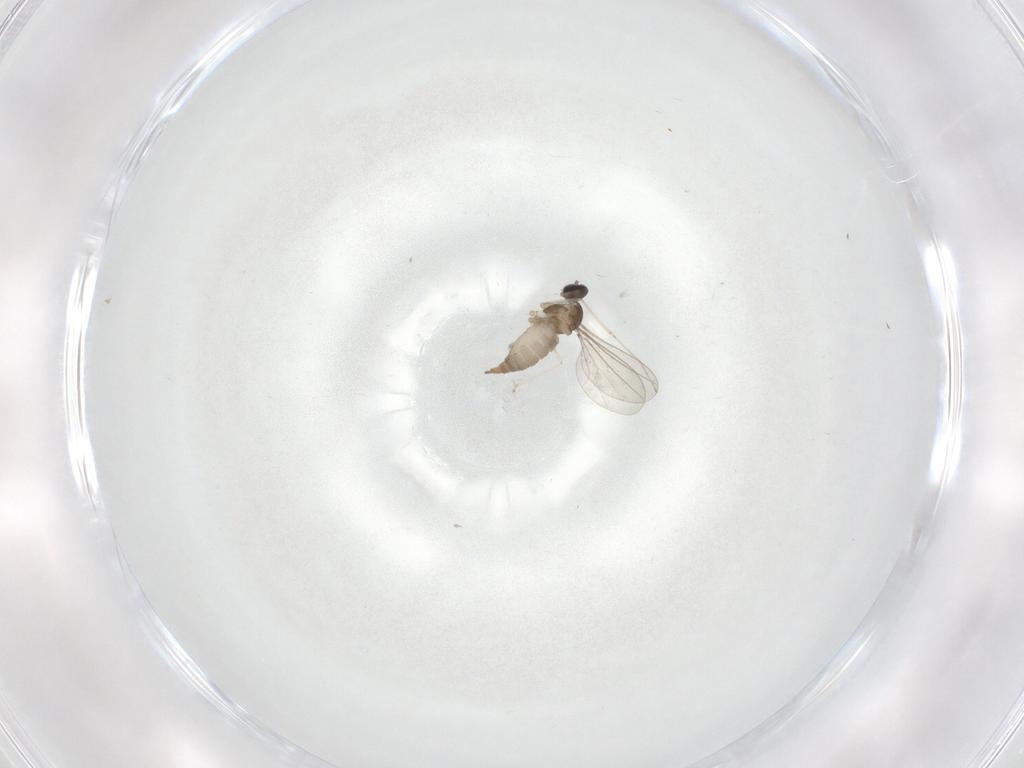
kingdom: Animalia
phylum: Arthropoda
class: Insecta
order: Diptera
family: Cecidomyiidae
